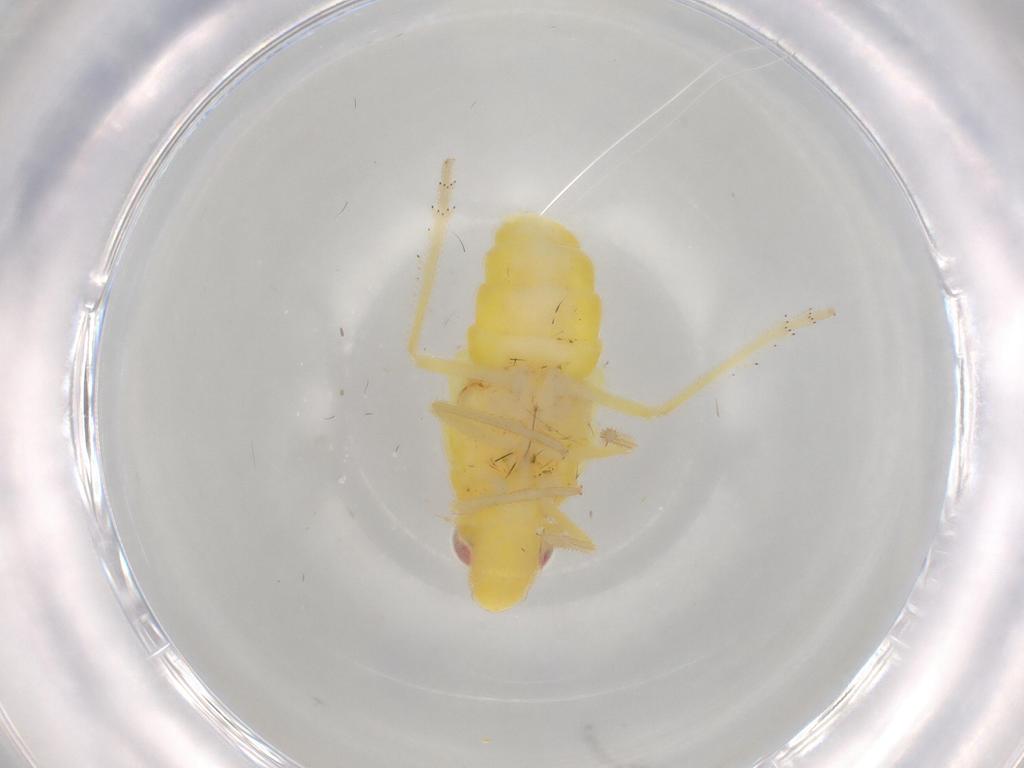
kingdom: Animalia
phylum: Arthropoda
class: Insecta
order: Hemiptera
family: Tropiduchidae
